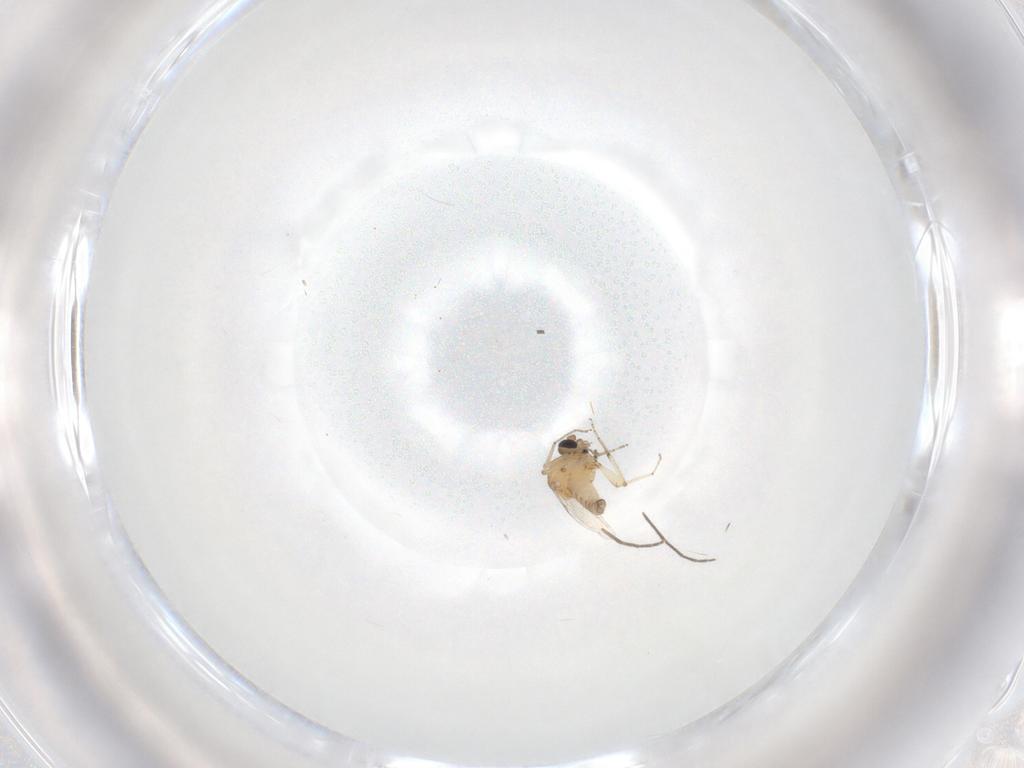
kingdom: Animalia
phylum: Arthropoda
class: Insecta
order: Diptera
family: Ceratopogonidae
